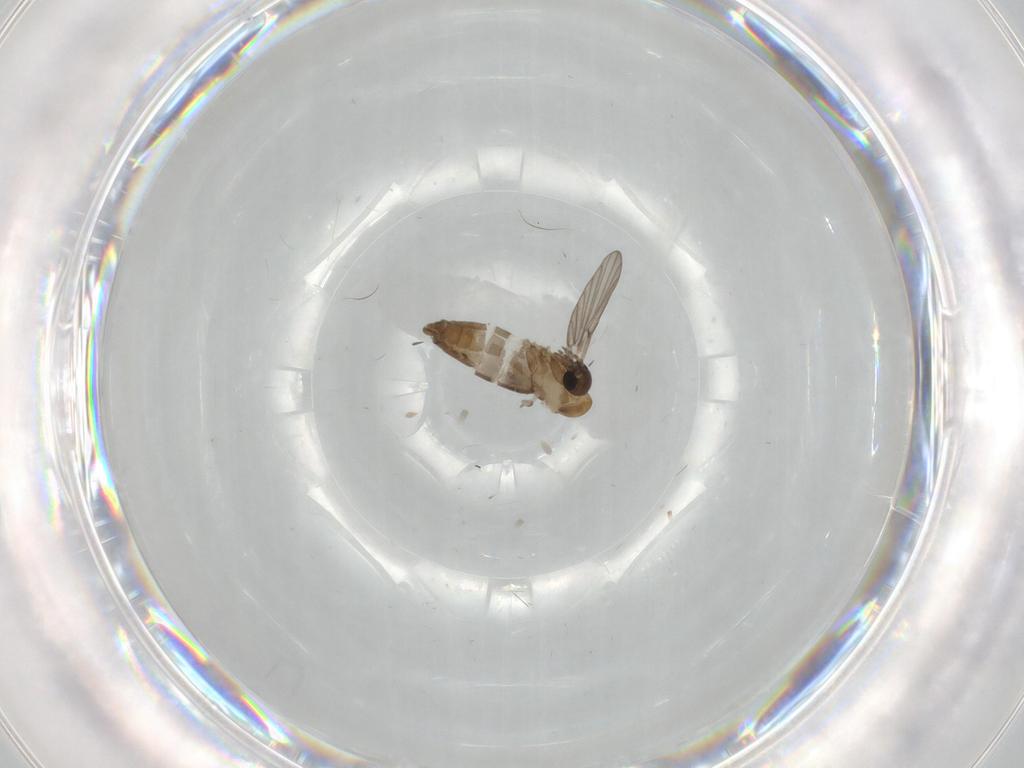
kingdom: Animalia
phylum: Arthropoda
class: Insecta
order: Diptera
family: Psychodidae
